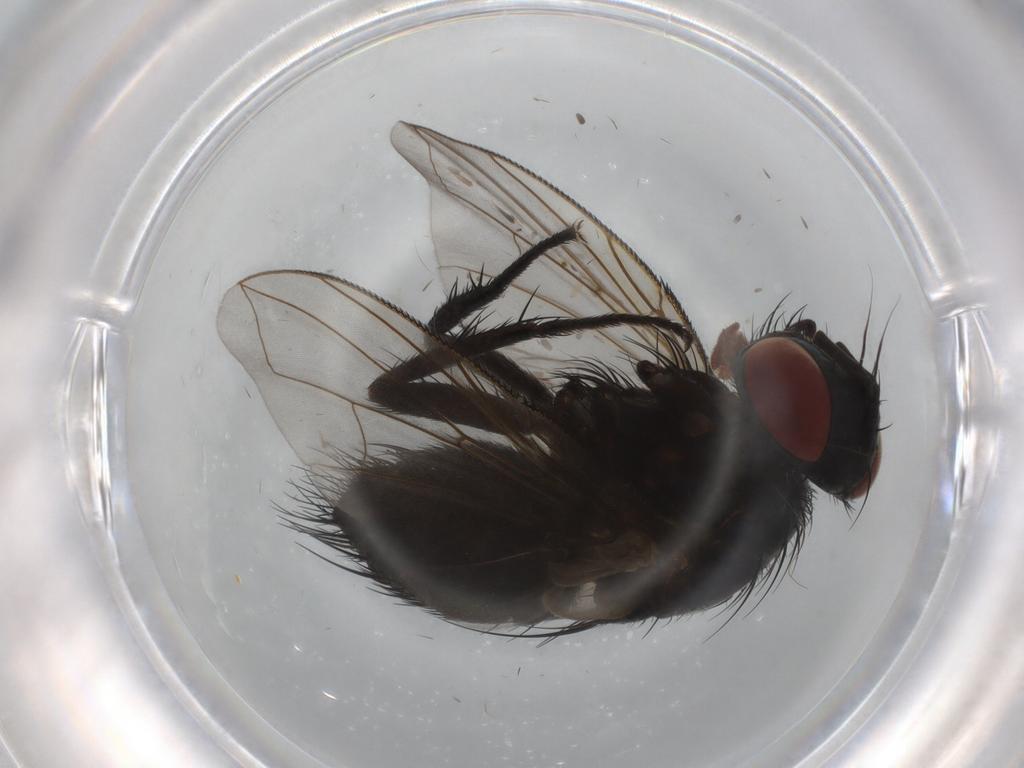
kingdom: Animalia
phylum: Arthropoda
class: Insecta
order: Diptera
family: Tachinidae
